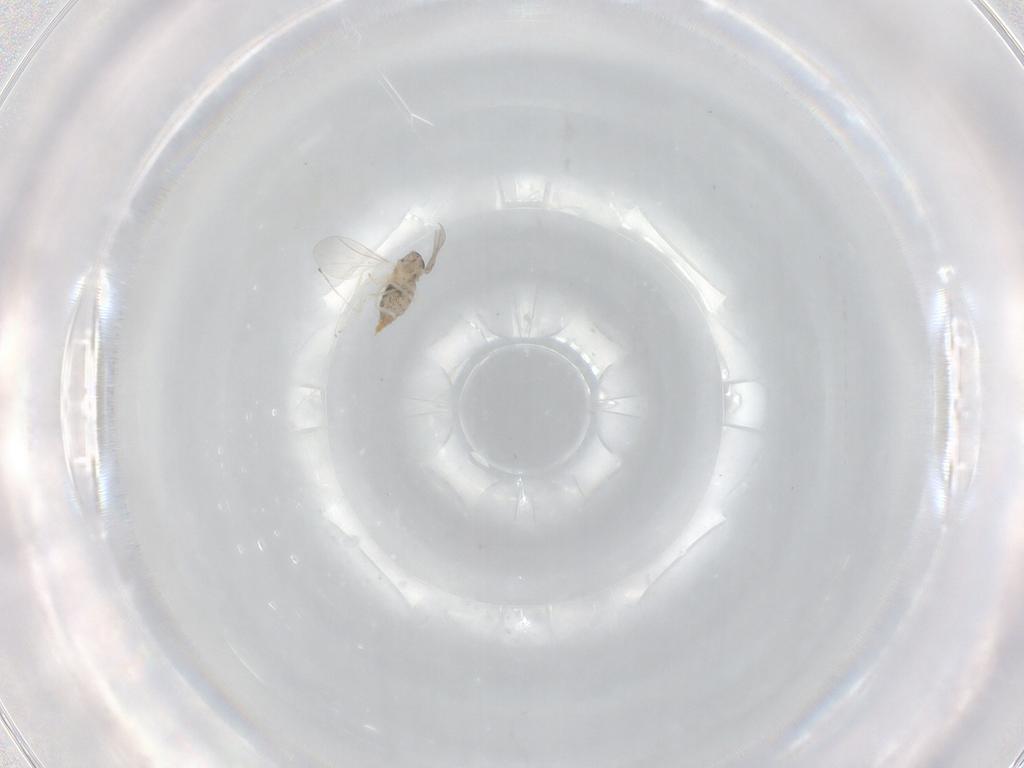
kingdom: Animalia
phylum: Arthropoda
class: Insecta
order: Diptera
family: Cecidomyiidae
